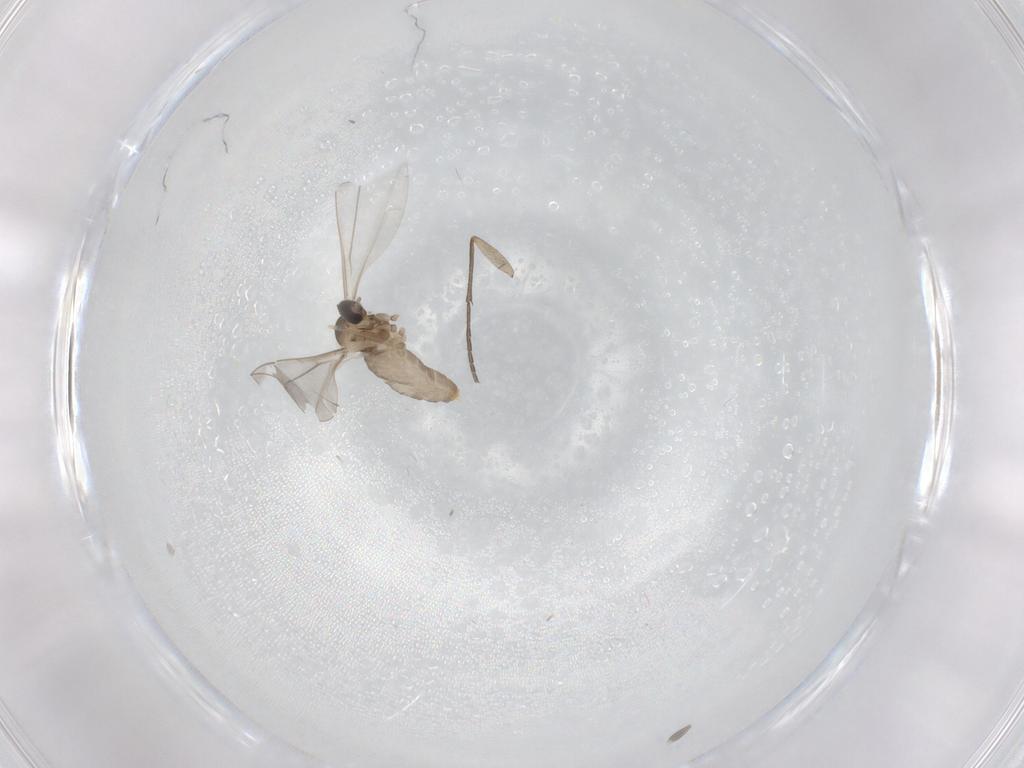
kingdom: Animalia
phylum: Arthropoda
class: Insecta
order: Diptera
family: Cecidomyiidae
